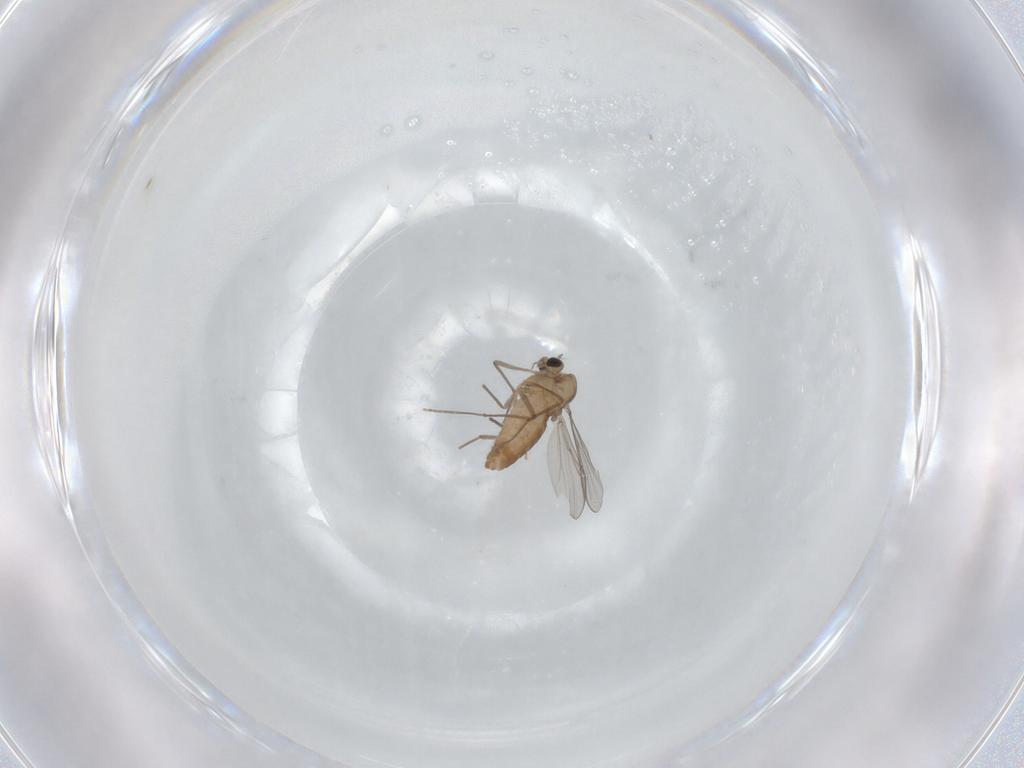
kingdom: Animalia
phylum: Arthropoda
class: Insecta
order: Diptera
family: Chironomidae
